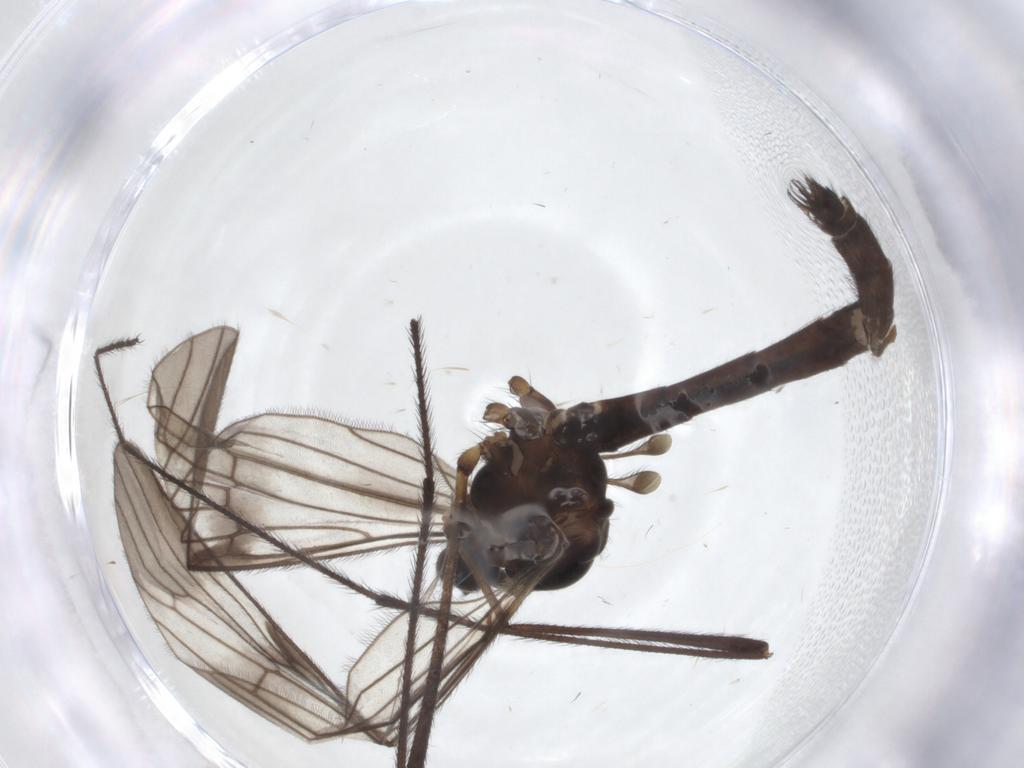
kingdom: Animalia
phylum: Arthropoda
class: Insecta
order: Diptera
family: Limoniidae
